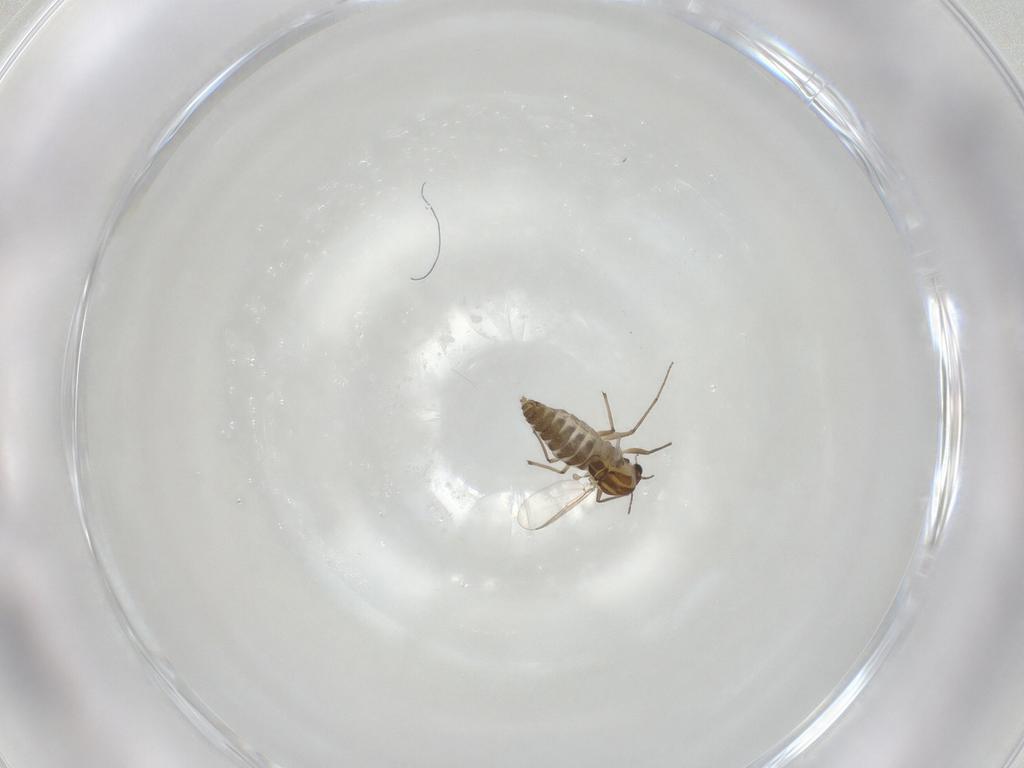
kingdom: Animalia
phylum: Arthropoda
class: Insecta
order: Diptera
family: Chironomidae
